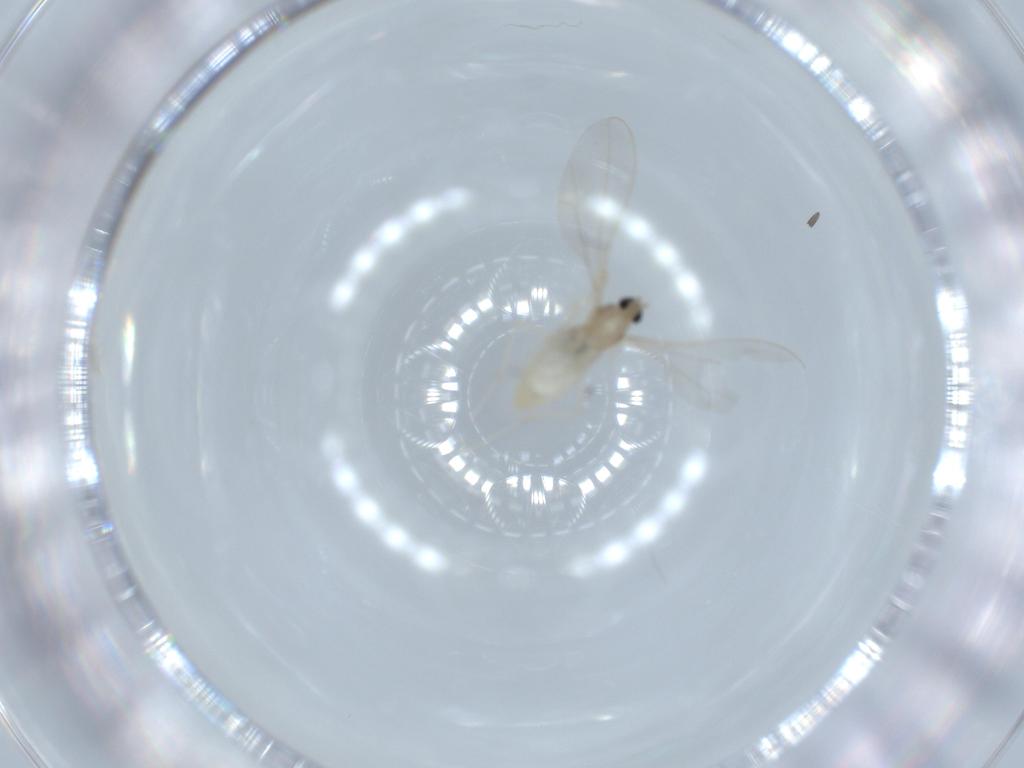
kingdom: Animalia
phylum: Arthropoda
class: Insecta
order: Diptera
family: Cecidomyiidae
